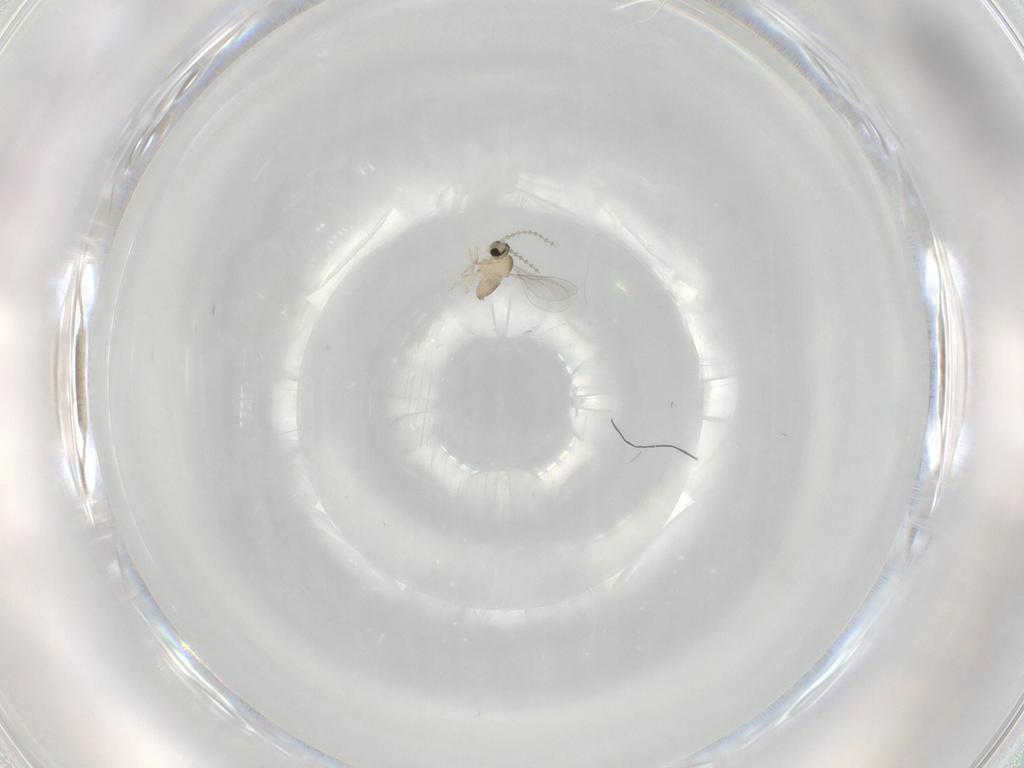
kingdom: Animalia
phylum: Arthropoda
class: Insecta
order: Diptera
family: Cecidomyiidae
